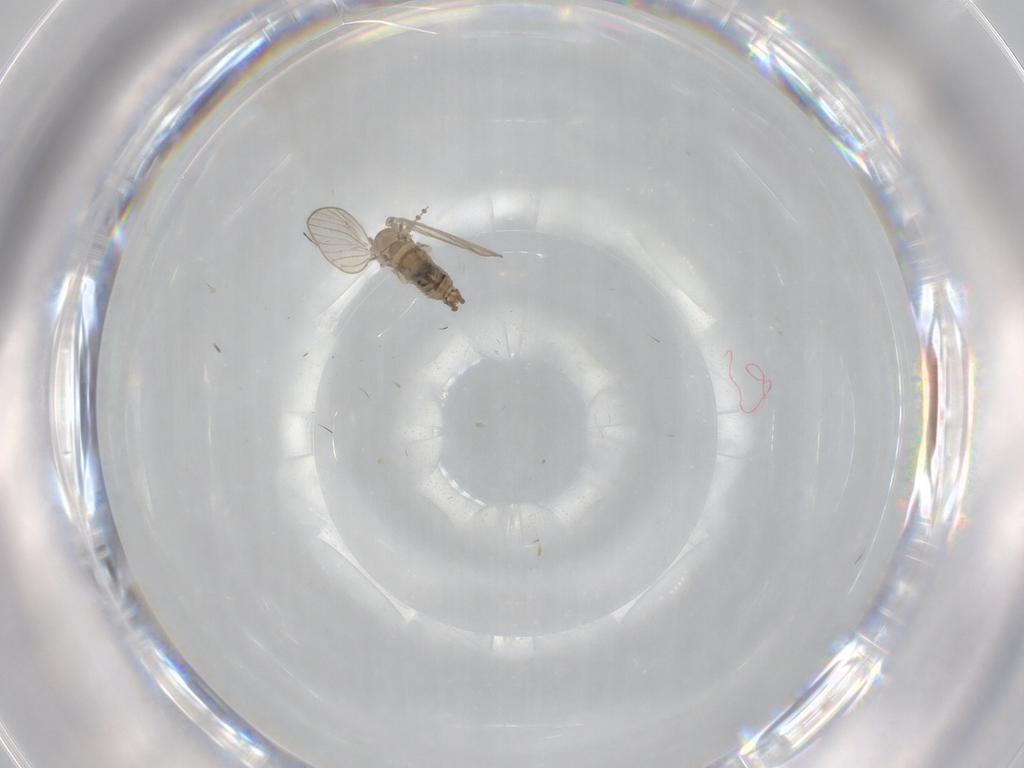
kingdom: Animalia
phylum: Arthropoda
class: Insecta
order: Diptera
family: Psychodidae
